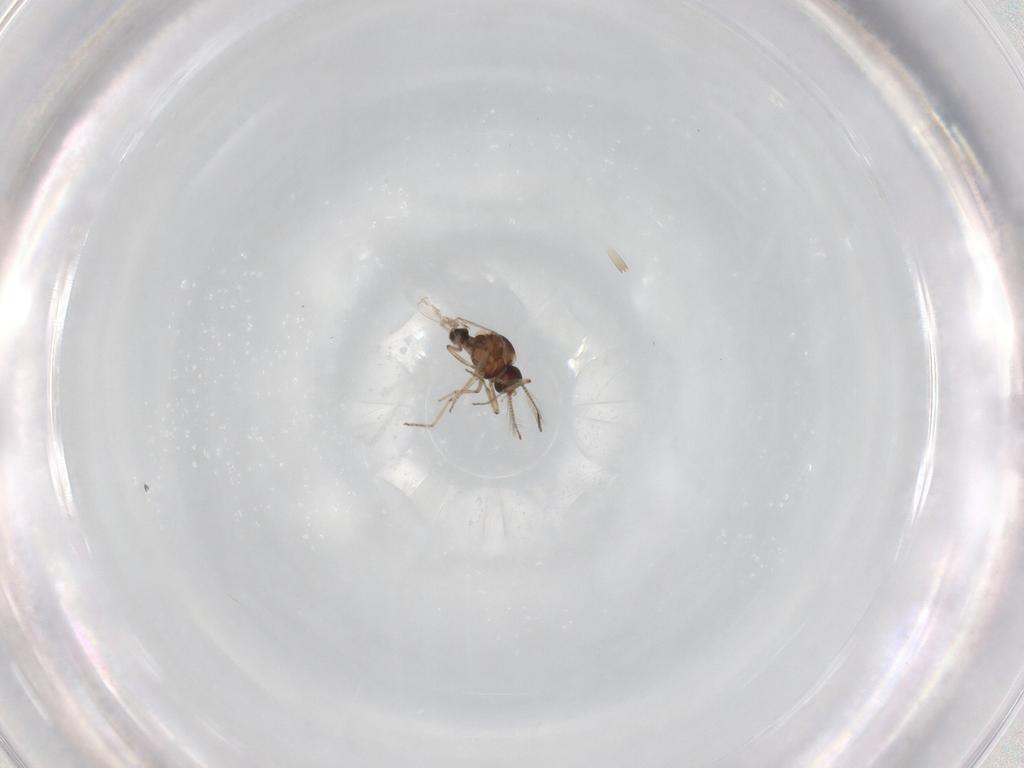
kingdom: Animalia
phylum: Arthropoda
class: Insecta
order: Diptera
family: Ceratopogonidae
